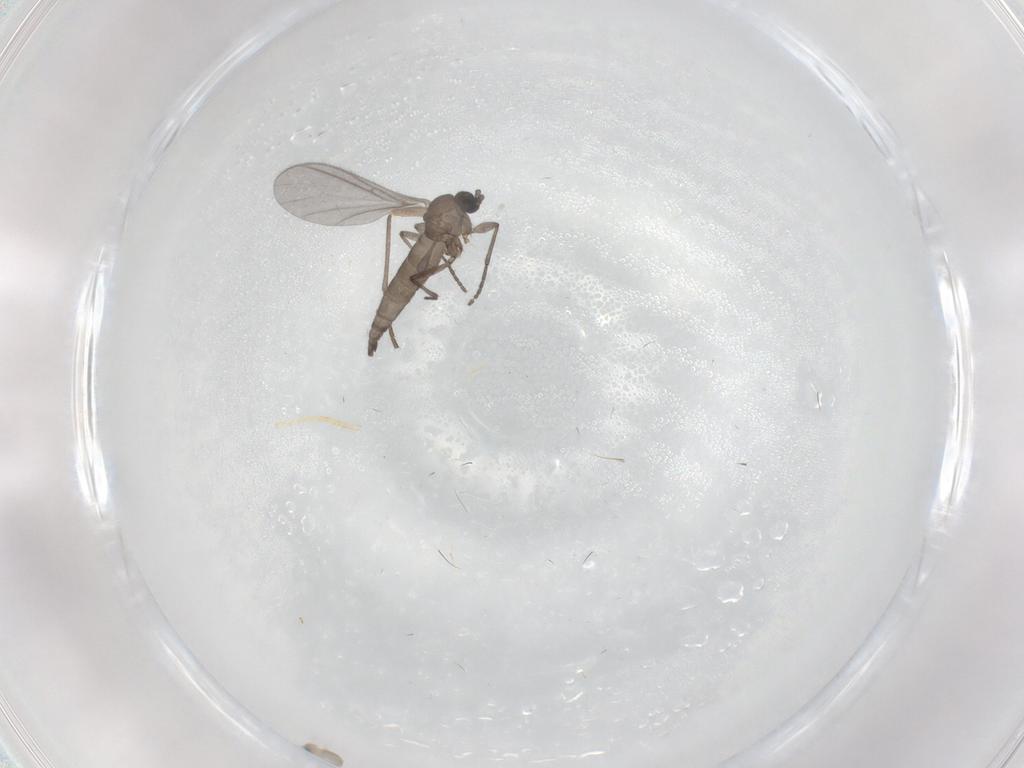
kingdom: Animalia
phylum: Arthropoda
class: Insecta
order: Diptera
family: Sciaridae
